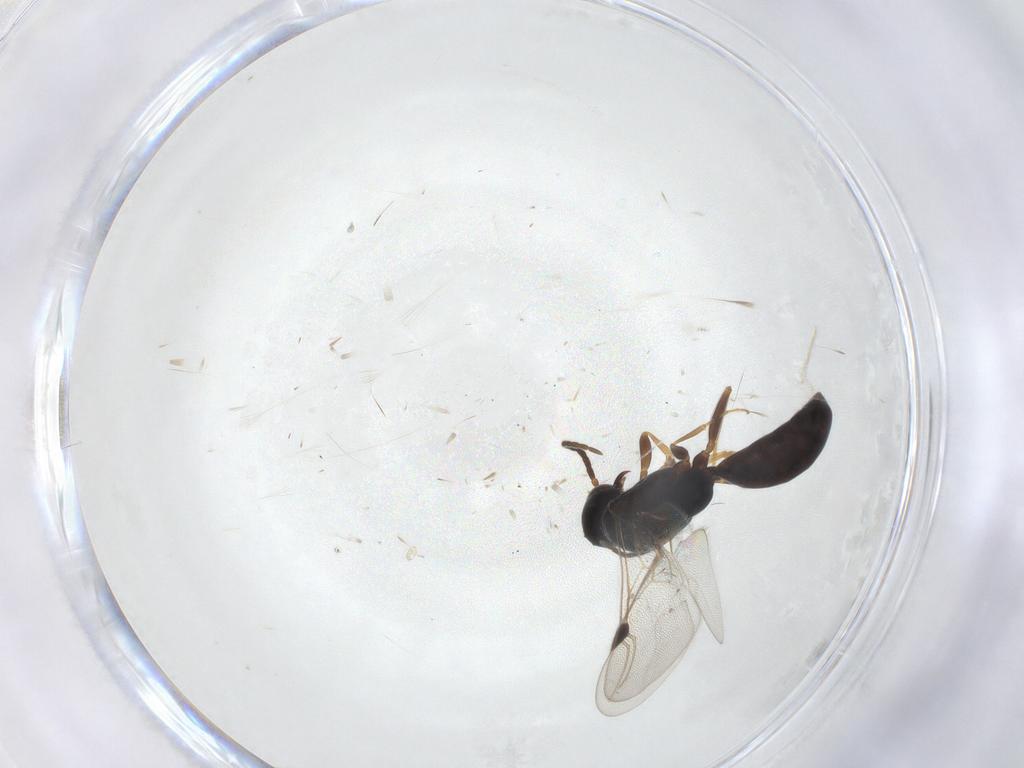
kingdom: Animalia
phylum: Arthropoda
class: Insecta
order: Hymenoptera
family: Bethylidae
